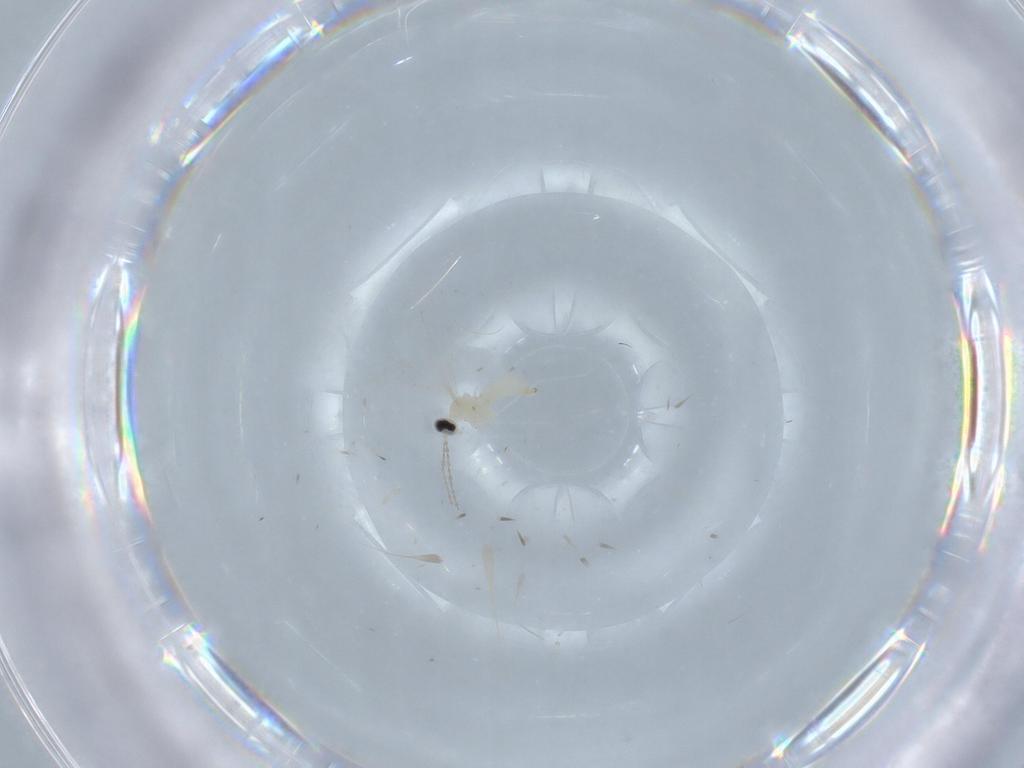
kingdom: Animalia
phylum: Arthropoda
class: Insecta
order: Diptera
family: Cecidomyiidae
